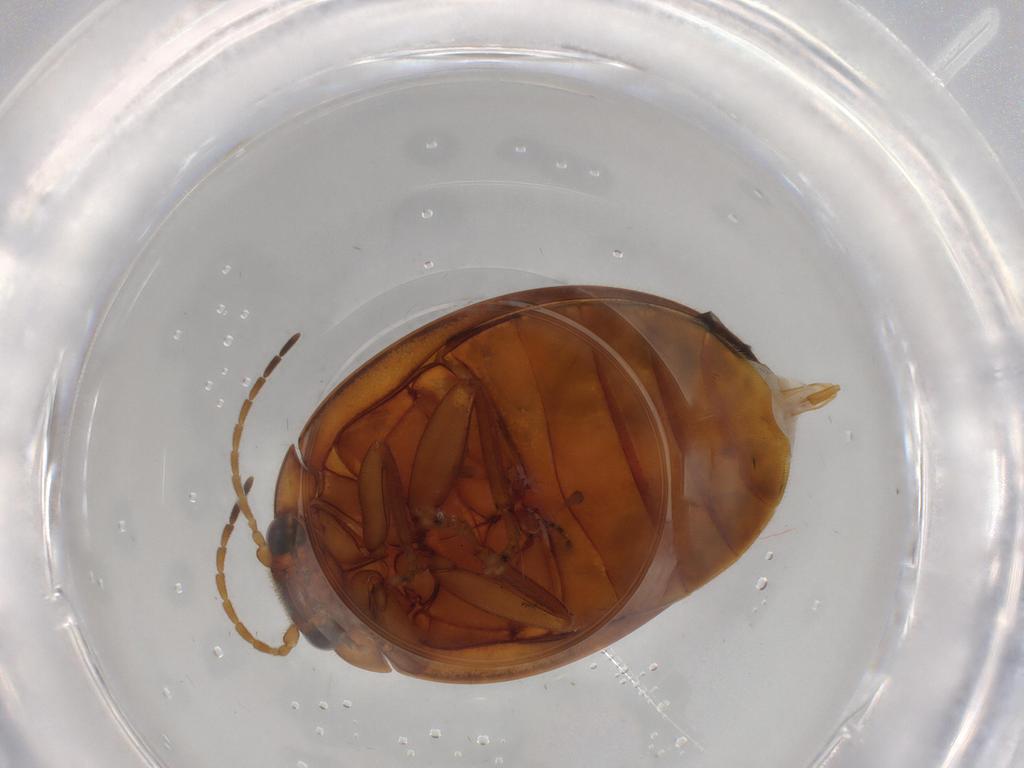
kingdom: Animalia
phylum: Arthropoda
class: Insecta
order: Coleoptera
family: Scirtidae
